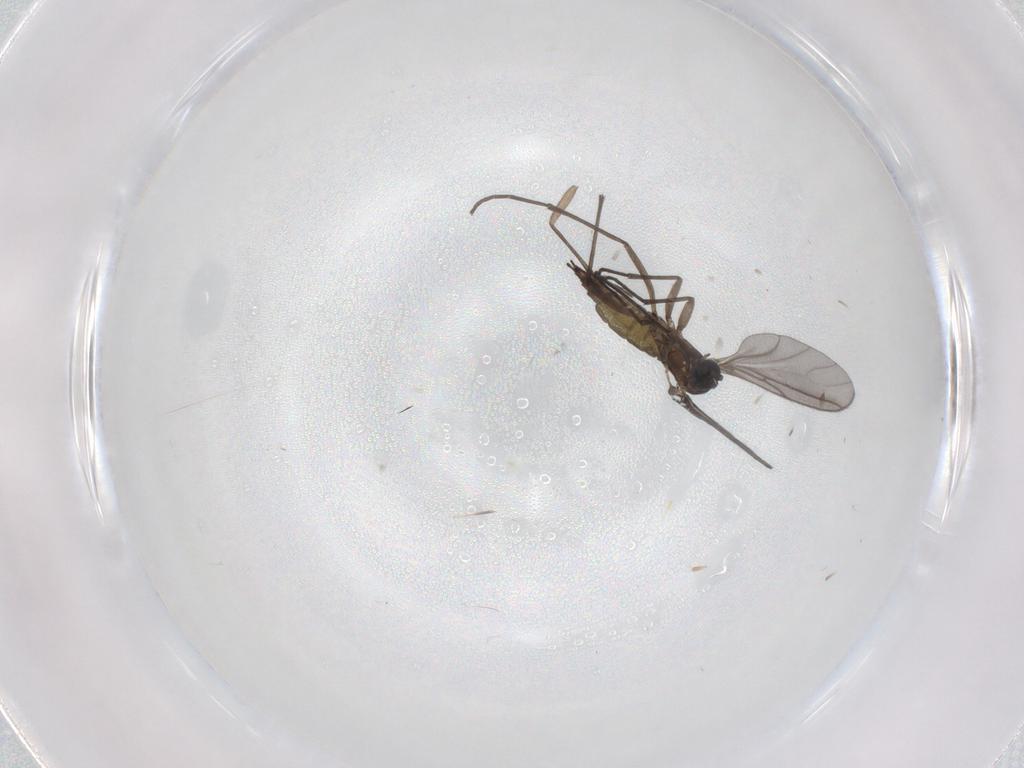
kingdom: Animalia
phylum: Arthropoda
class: Insecta
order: Diptera
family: Sciaridae
